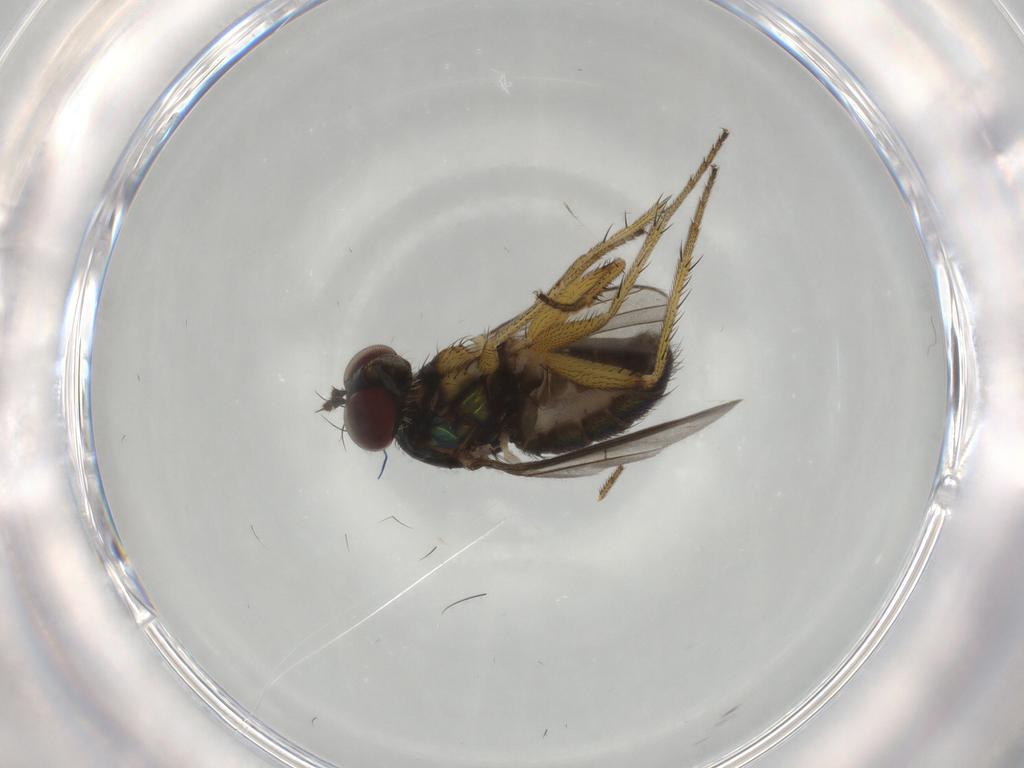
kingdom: Animalia
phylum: Arthropoda
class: Insecta
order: Diptera
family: Dolichopodidae
